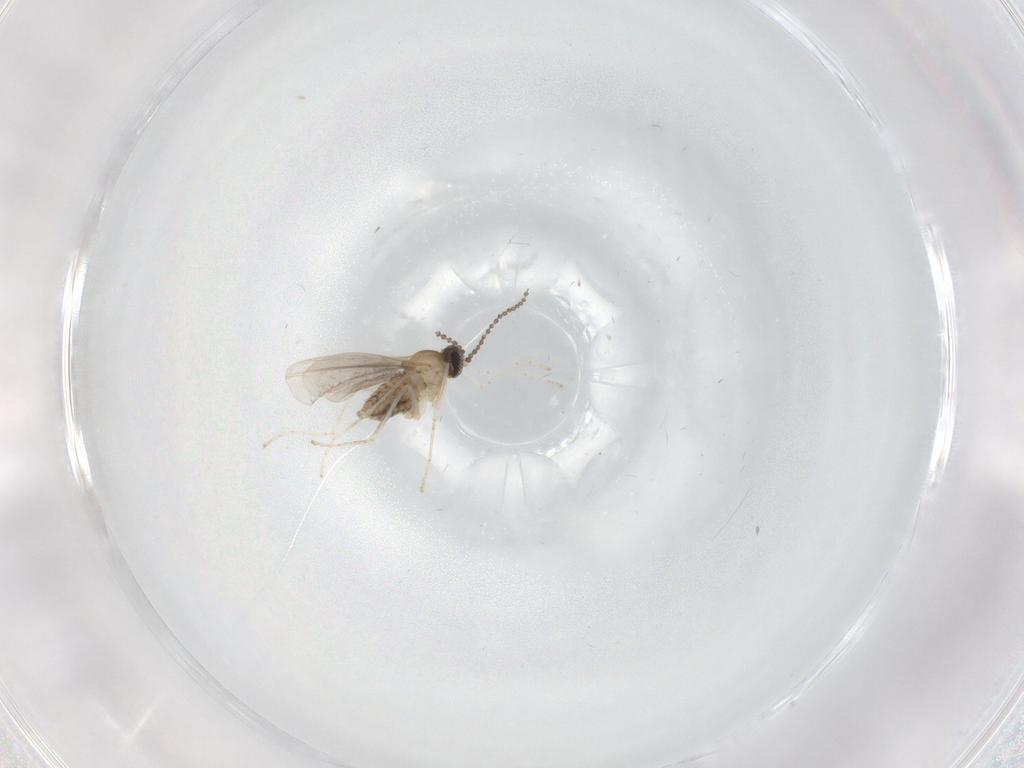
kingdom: Animalia
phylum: Arthropoda
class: Insecta
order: Diptera
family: Cecidomyiidae
